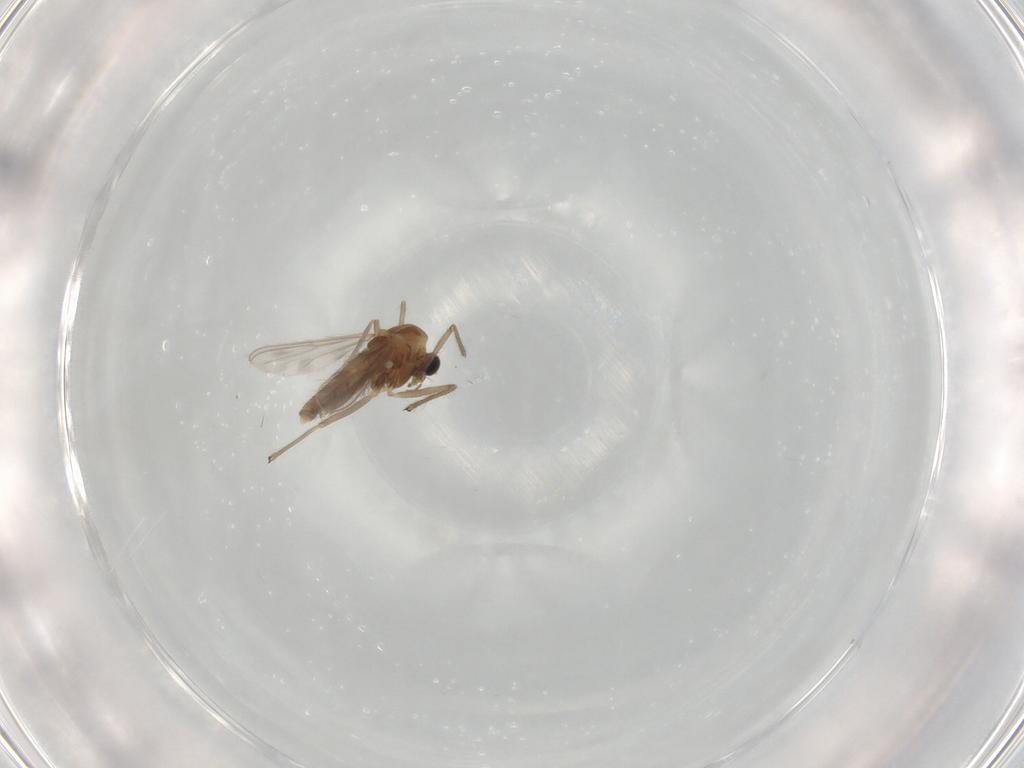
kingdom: Animalia
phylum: Arthropoda
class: Insecta
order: Diptera
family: Chironomidae
